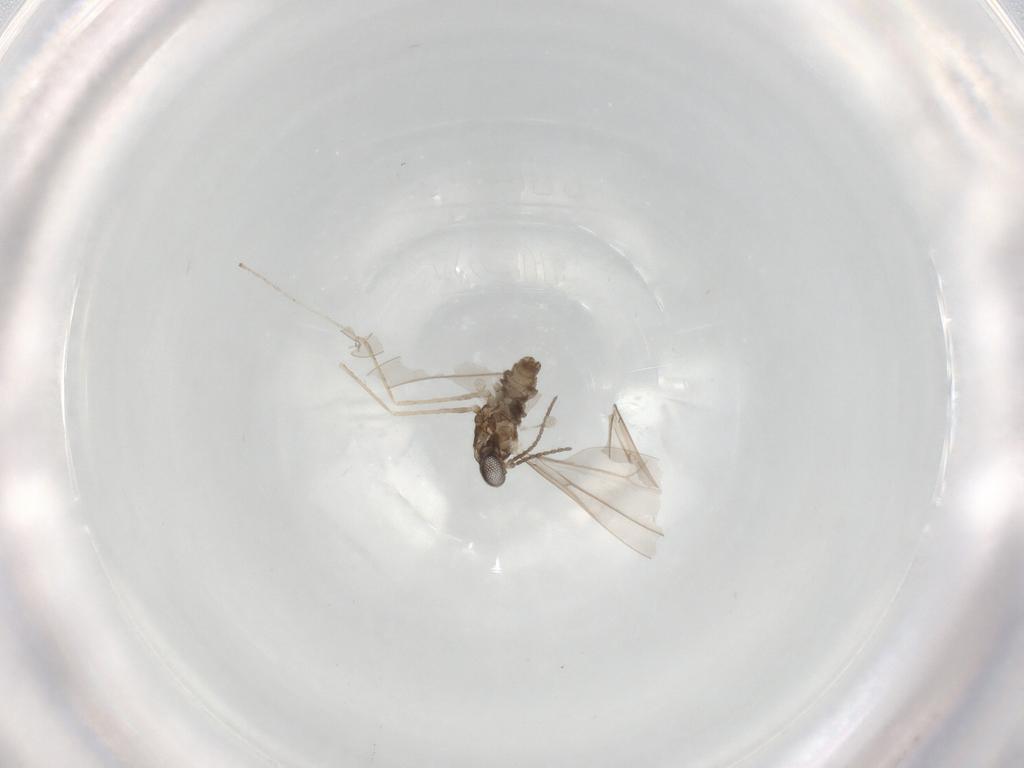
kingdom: Animalia
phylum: Arthropoda
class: Insecta
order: Diptera
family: Cecidomyiidae
